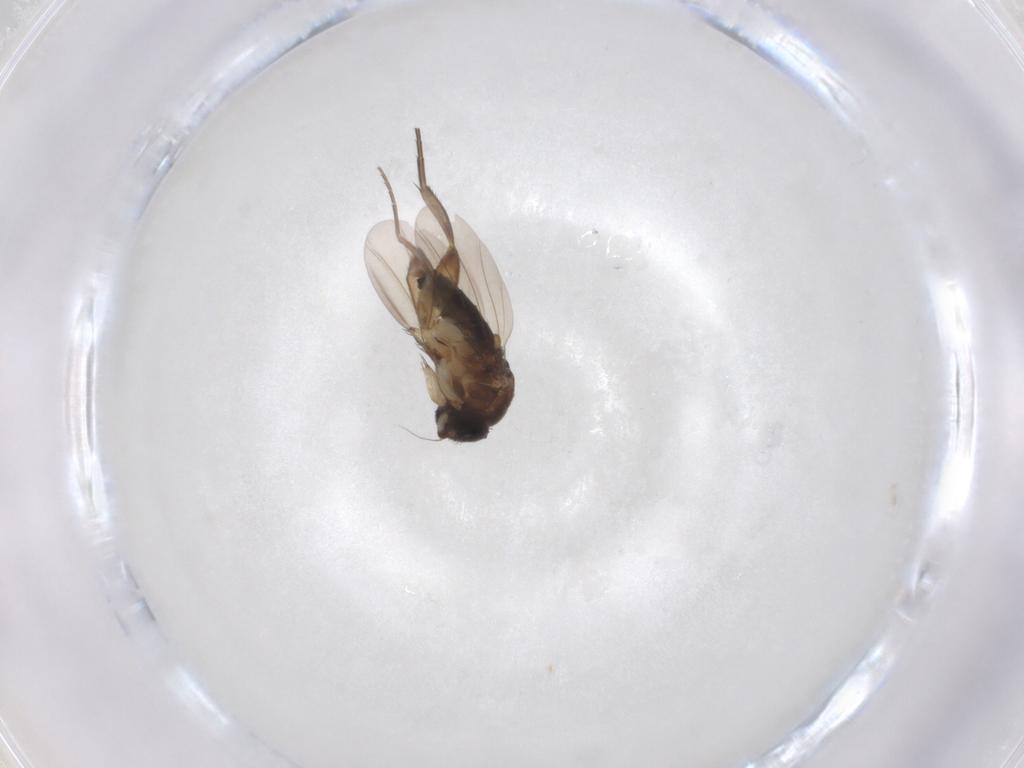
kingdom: Animalia
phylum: Arthropoda
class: Insecta
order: Diptera
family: Phoridae
